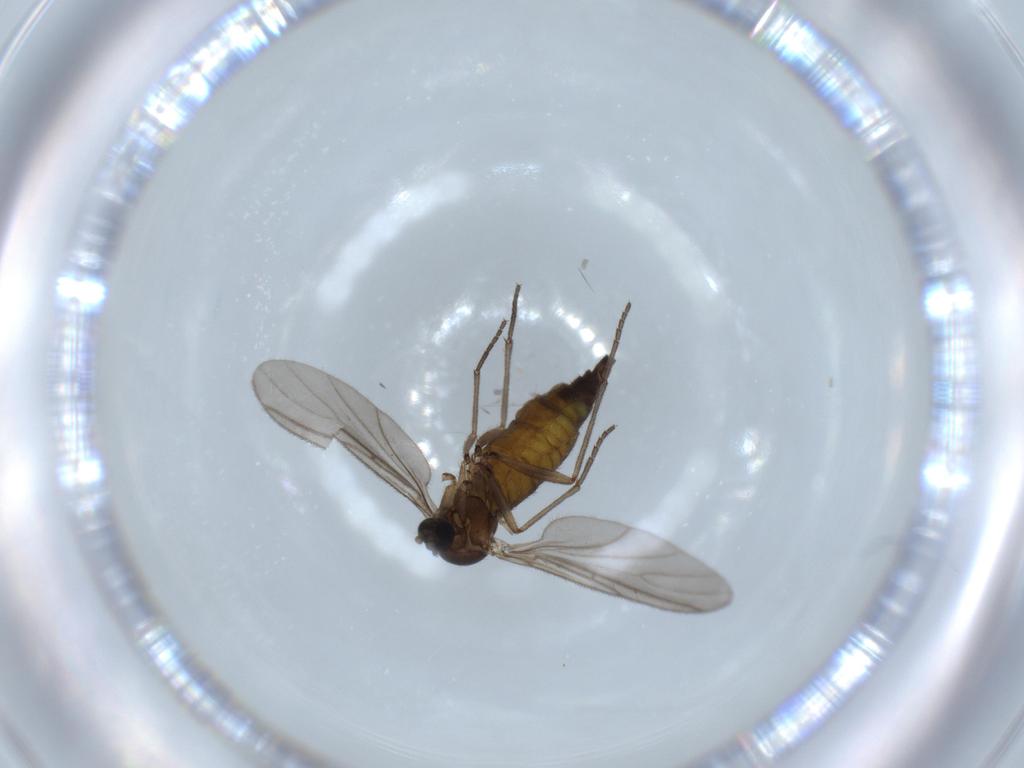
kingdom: Animalia
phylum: Arthropoda
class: Insecta
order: Diptera
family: Sciaridae
